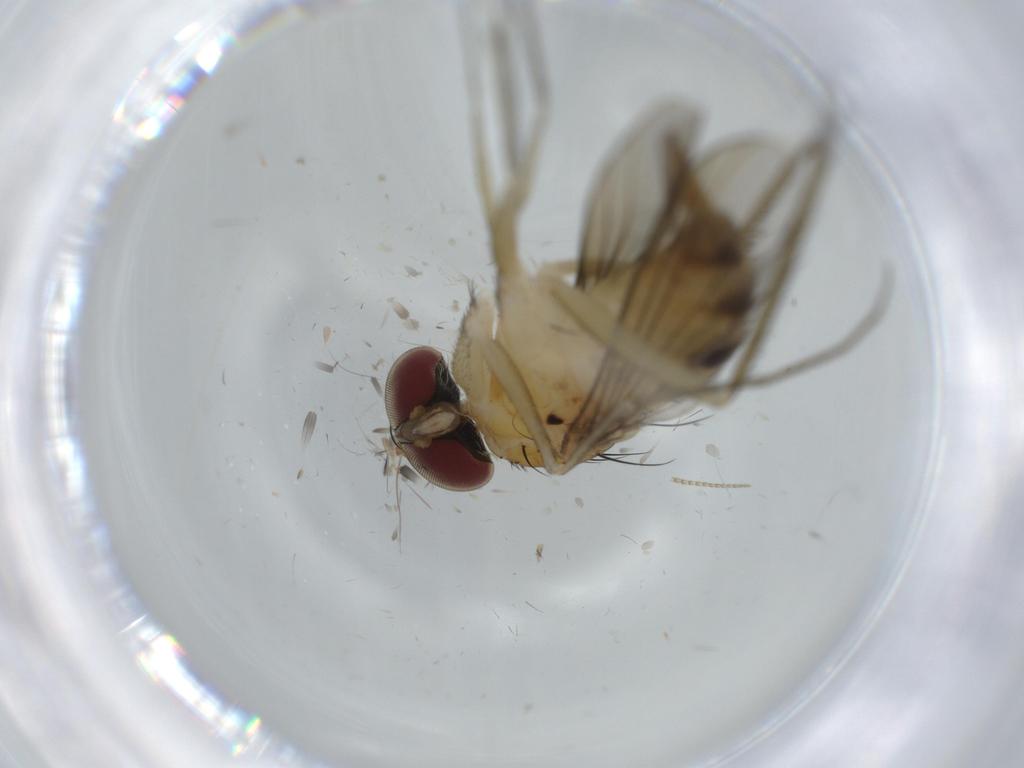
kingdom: Animalia
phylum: Arthropoda
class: Insecta
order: Diptera
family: Dolichopodidae
